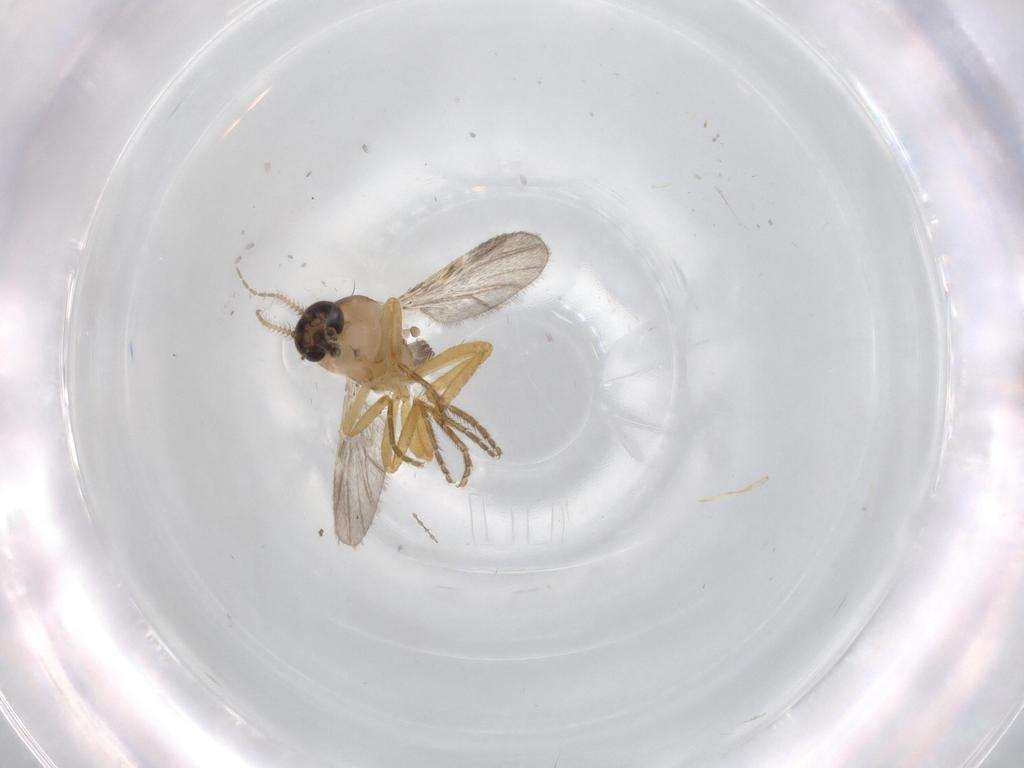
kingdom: Animalia
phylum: Arthropoda
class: Insecta
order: Diptera
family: Ceratopogonidae
